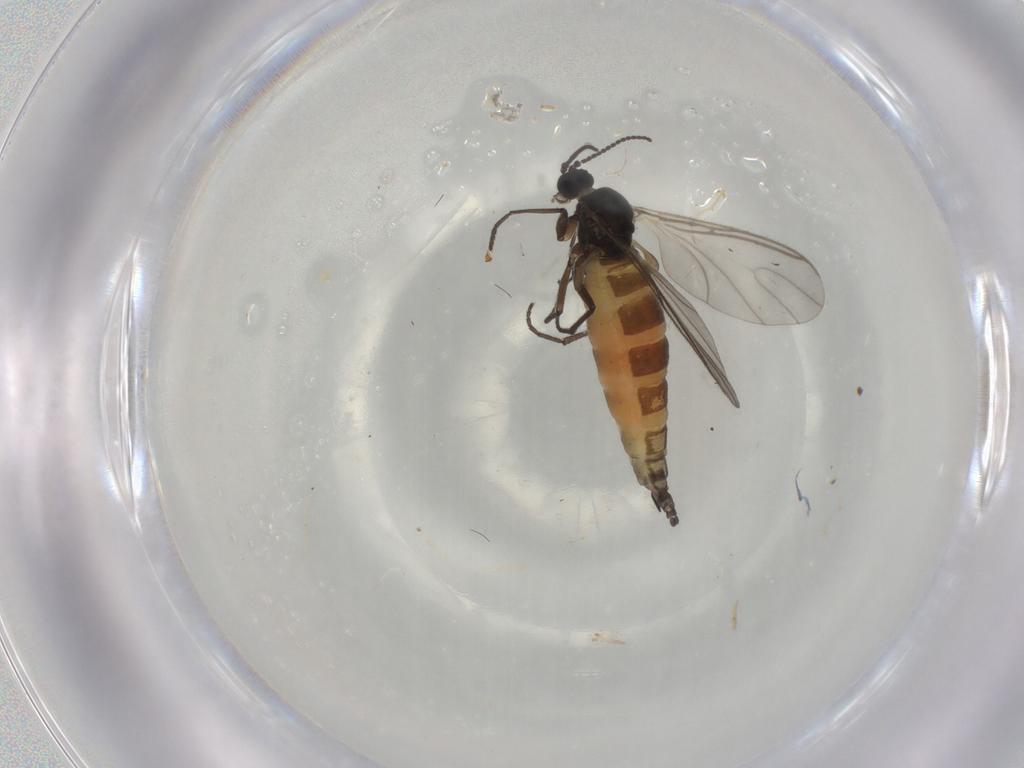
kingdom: Animalia
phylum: Arthropoda
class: Insecta
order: Diptera
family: Sciaridae
